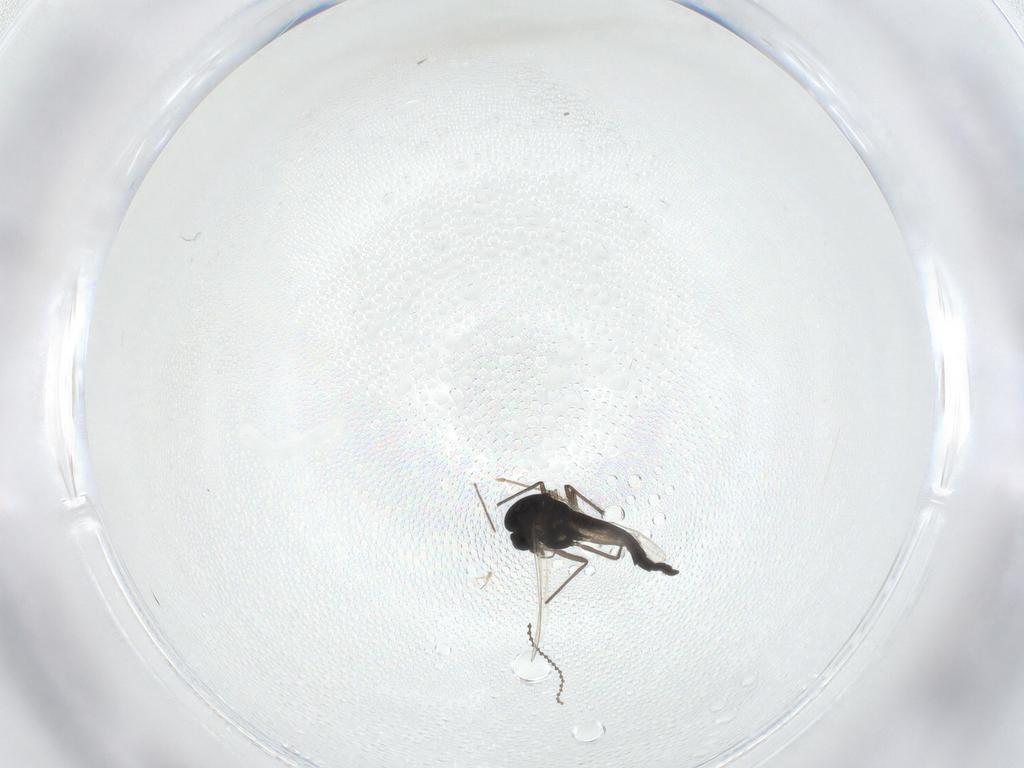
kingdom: Animalia
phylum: Arthropoda
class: Insecta
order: Diptera
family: Chironomidae
